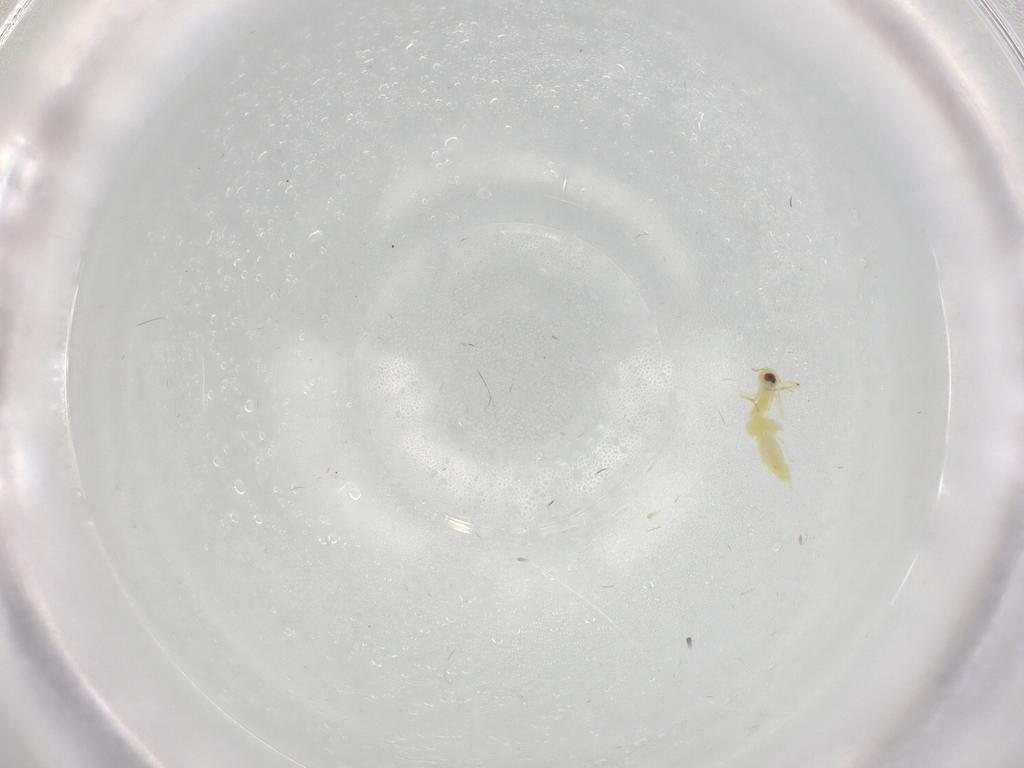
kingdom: Animalia
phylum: Arthropoda
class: Insecta
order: Hemiptera
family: Aleyrodidae
